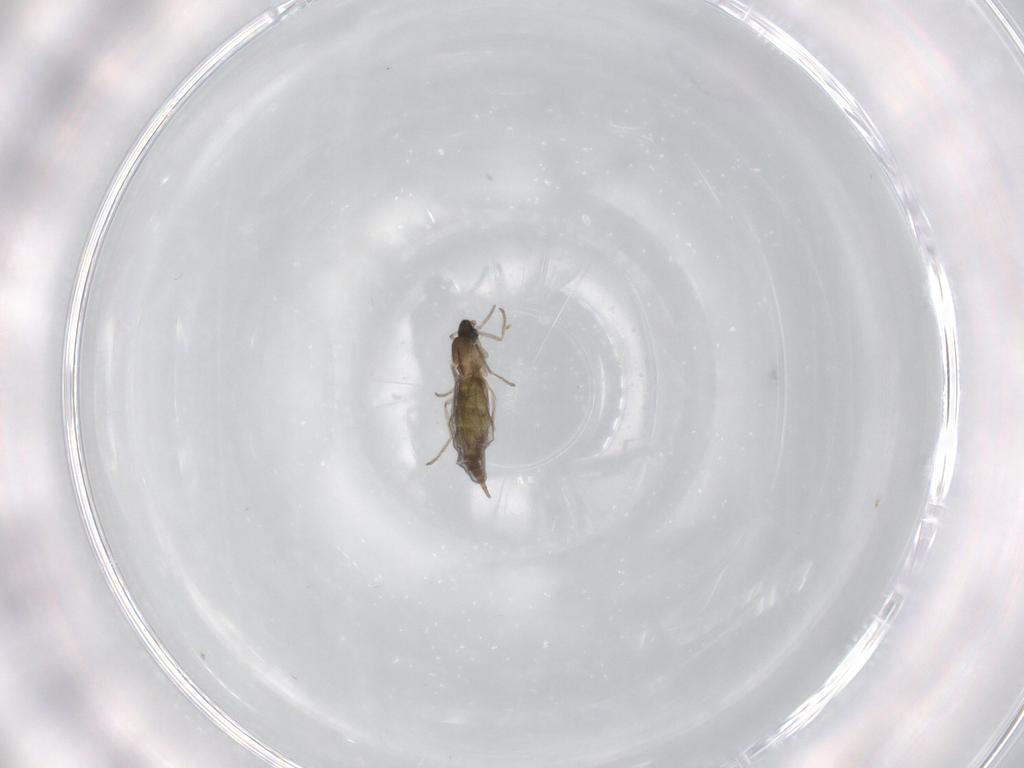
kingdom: Animalia
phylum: Arthropoda
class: Insecta
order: Diptera
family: Cecidomyiidae
